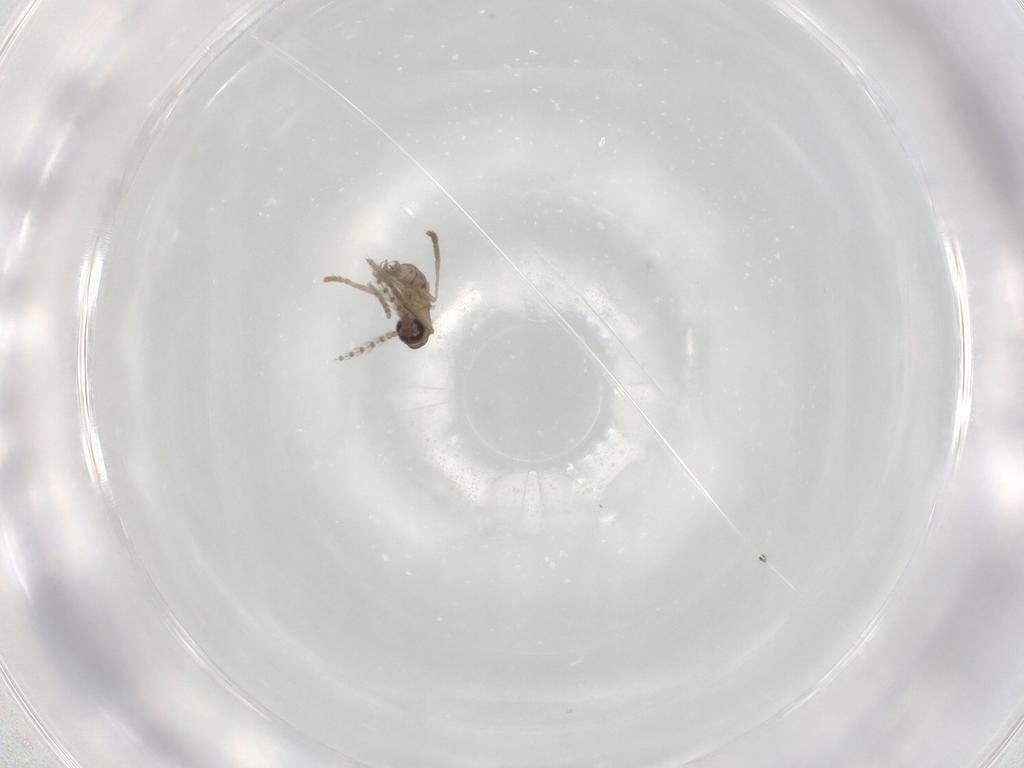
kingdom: Animalia
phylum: Arthropoda
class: Insecta
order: Diptera
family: Psychodidae
